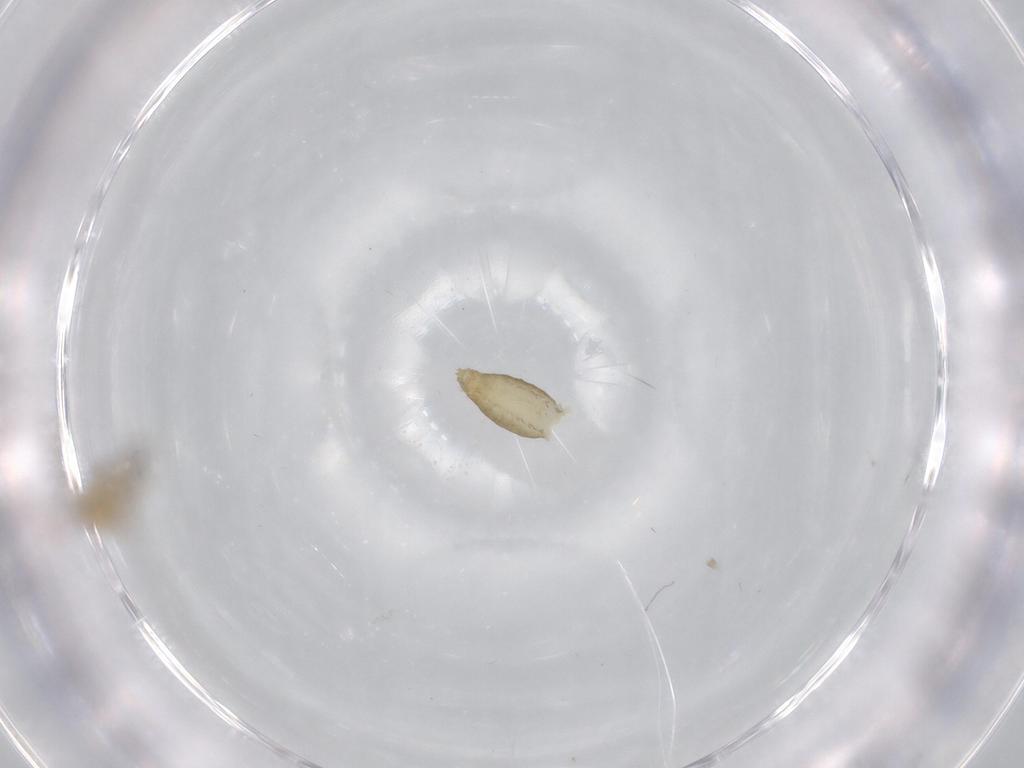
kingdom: Animalia
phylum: Arthropoda
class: Insecta
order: Diptera
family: Chironomidae
